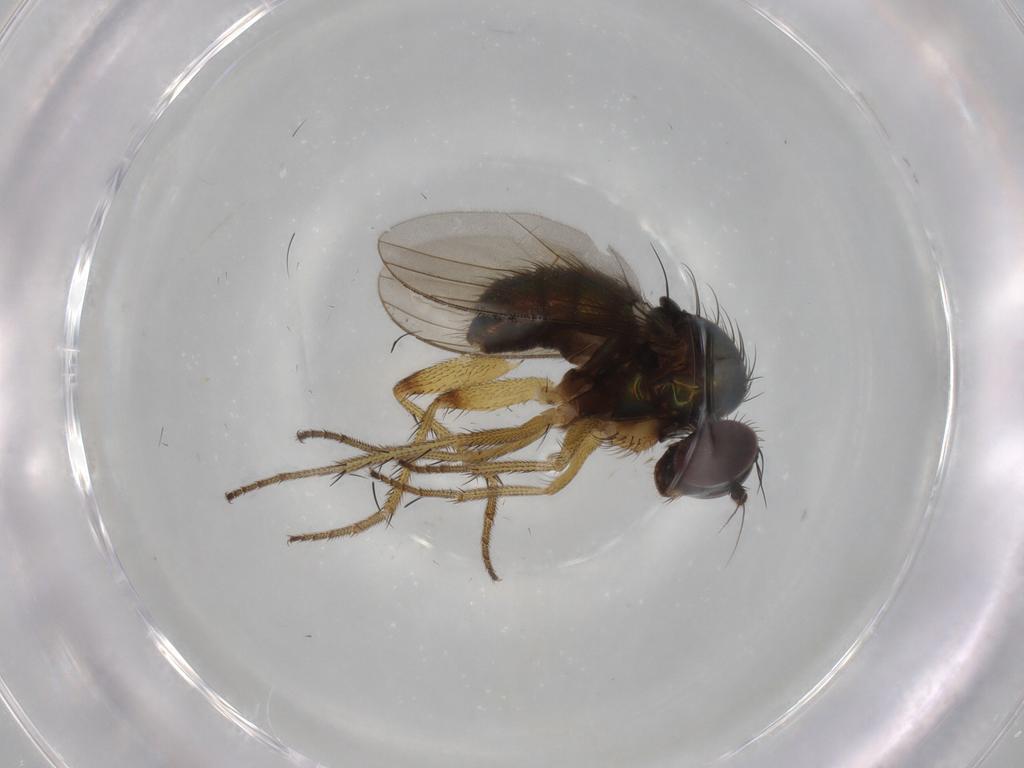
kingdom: Animalia
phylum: Arthropoda
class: Insecta
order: Diptera
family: Dolichopodidae
